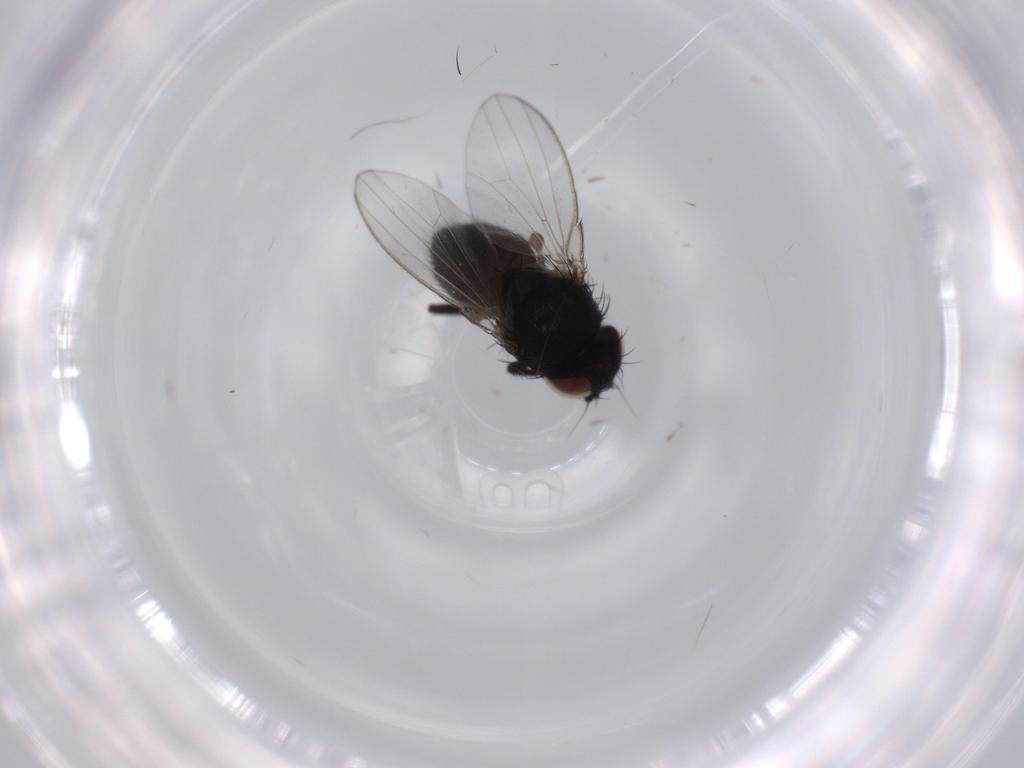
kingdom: Animalia
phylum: Arthropoda
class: Insecta
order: Diptera
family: Milichiidae
